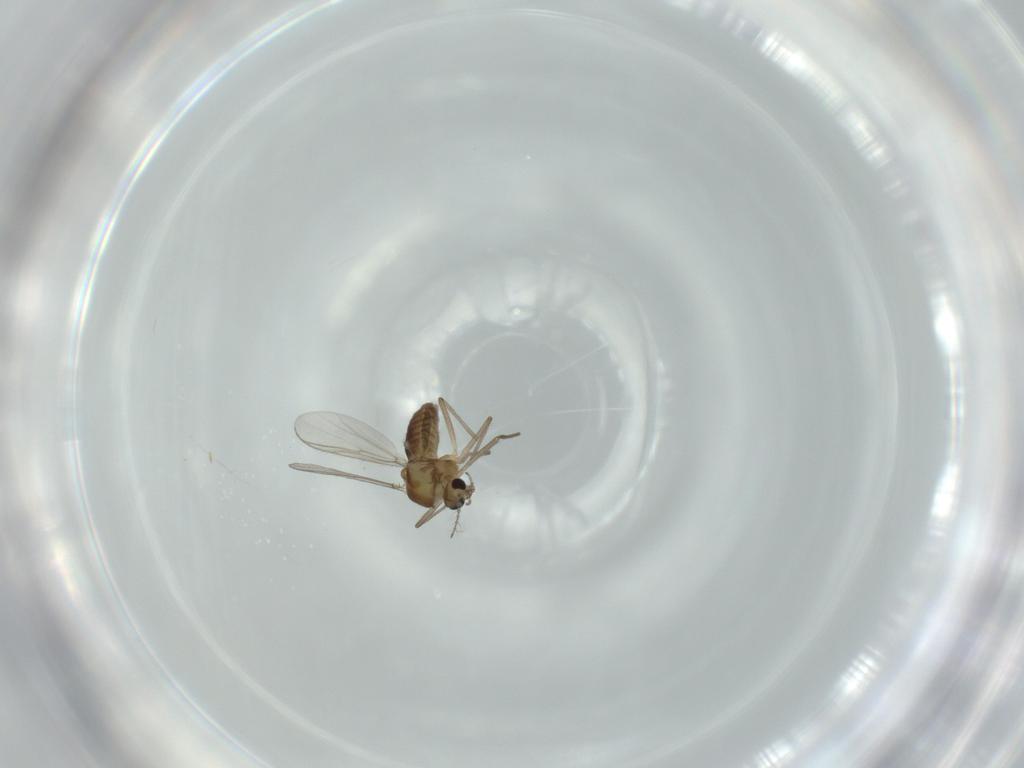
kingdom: Animalia
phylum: Arthropoda
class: Insecta
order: Diptera
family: Chironomidae
